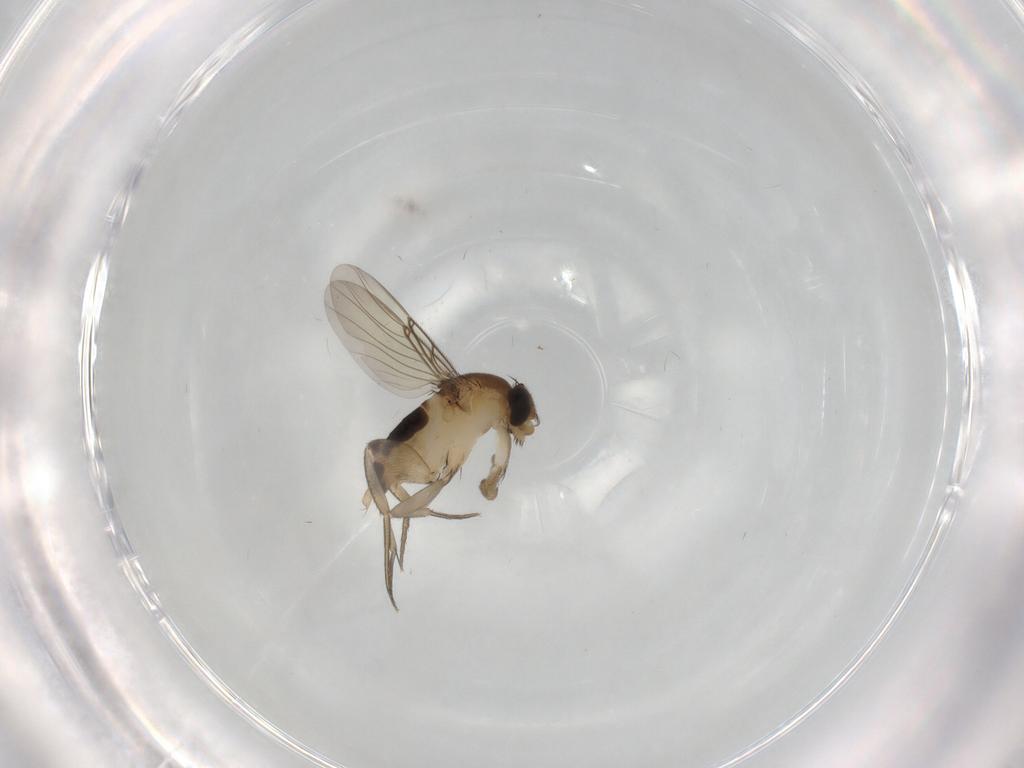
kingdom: Animalia
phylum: Arthropoda
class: Insecta
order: Diptera
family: Phoridae
